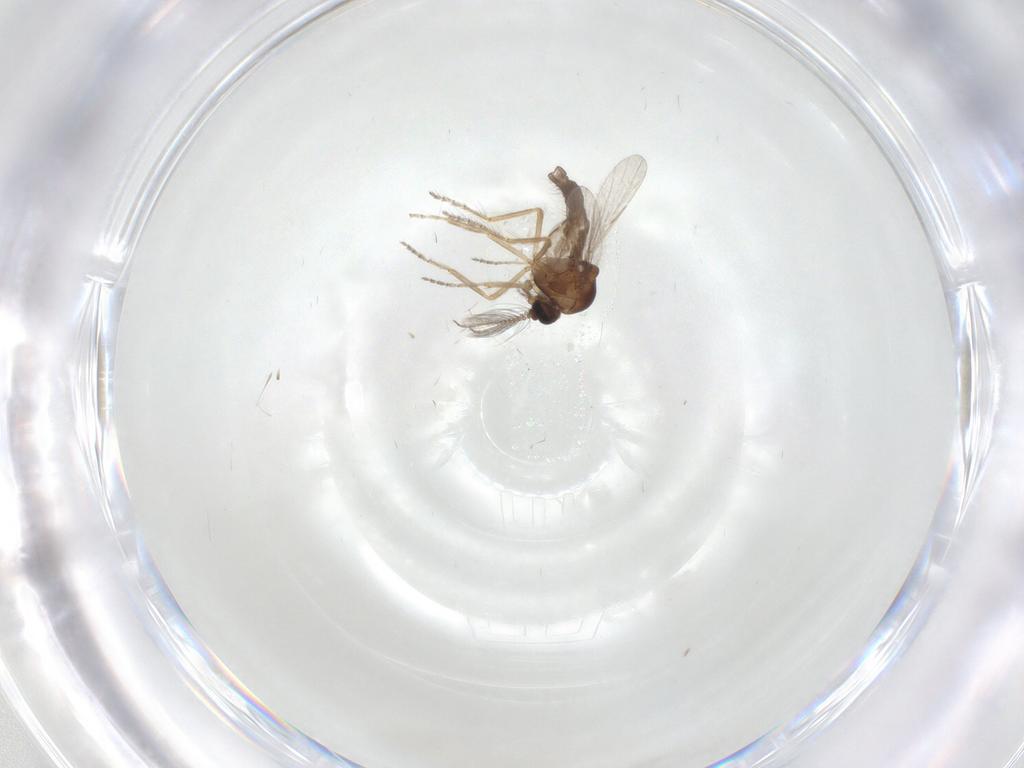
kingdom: Animalia
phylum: Arthropoda
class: Insecta
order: Diptera
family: Ceratopogonidae
